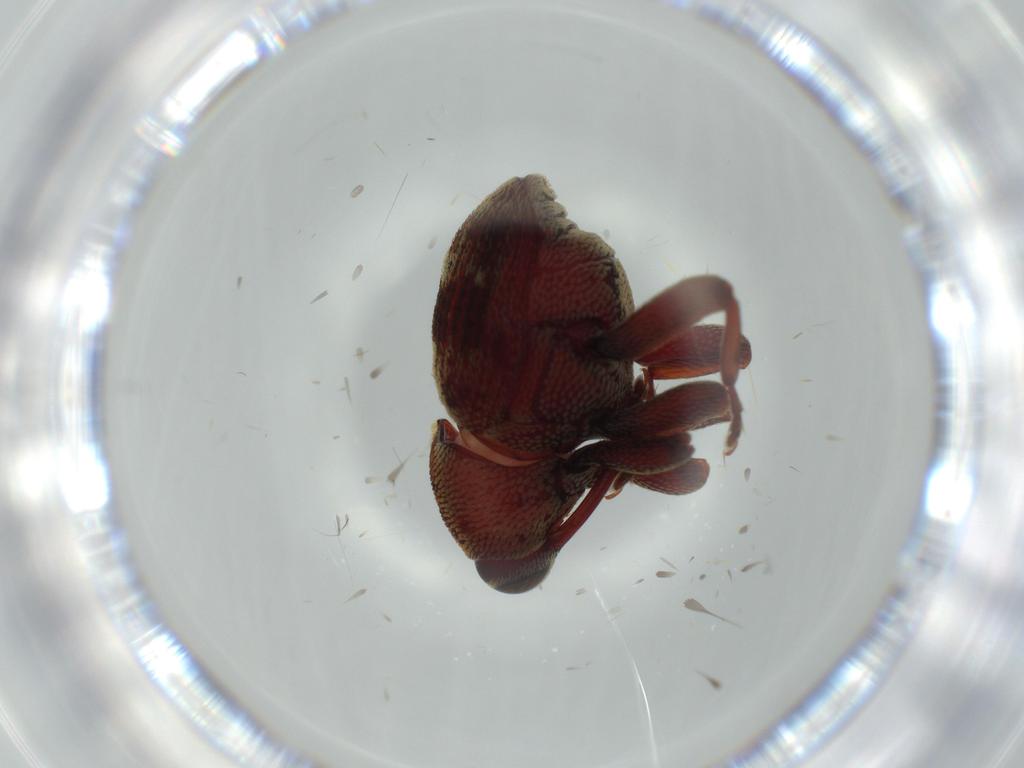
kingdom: Animalia
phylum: Arthropoda
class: Insecta
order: Coleoptera
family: Curculionidae
